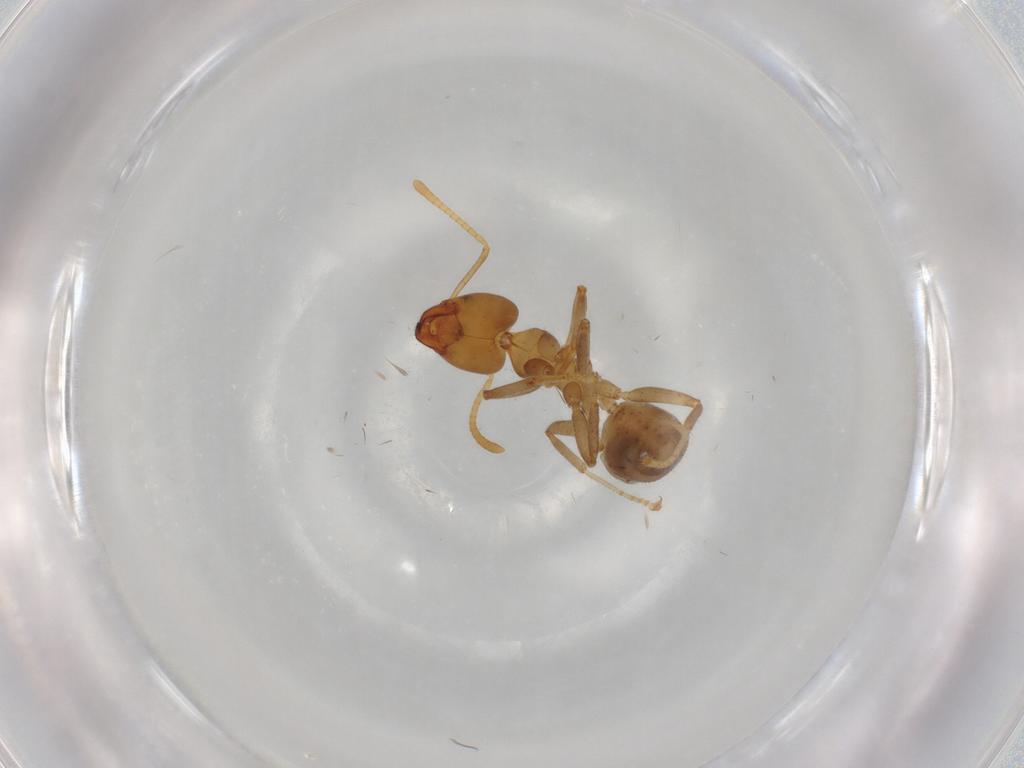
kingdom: Animalia
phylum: Arthropoda
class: Insecta
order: Hymenoptera
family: Formicidae
